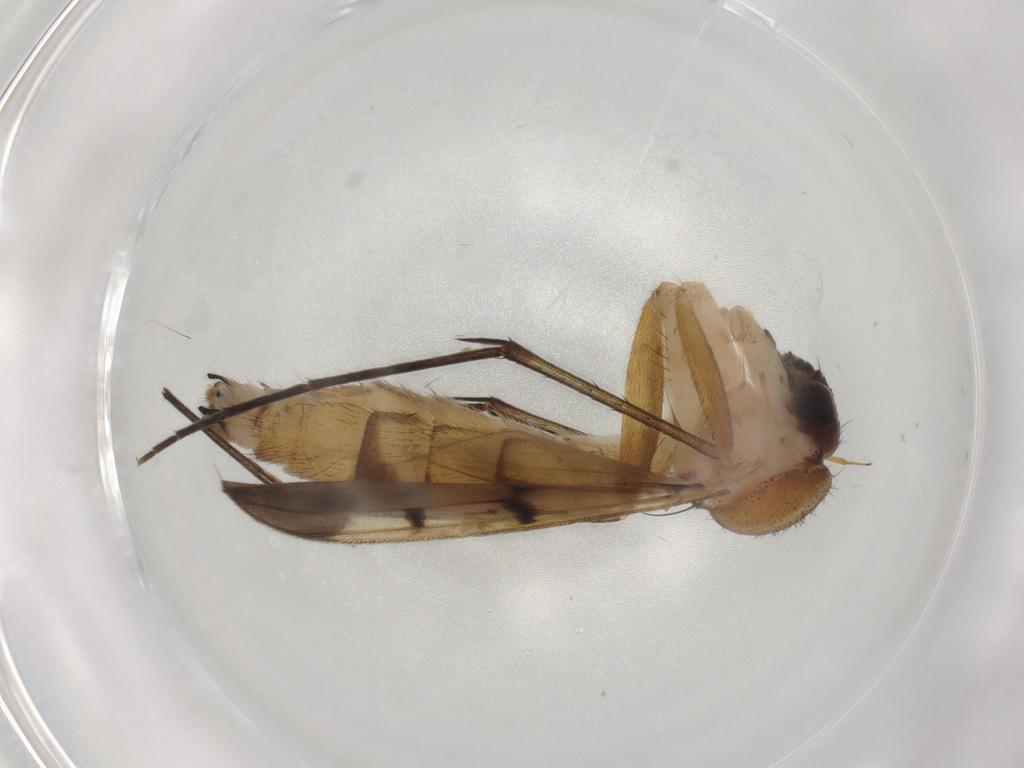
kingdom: Animalia
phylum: Arthropoda
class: Insecta
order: Diptera
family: Mycetophilidae
